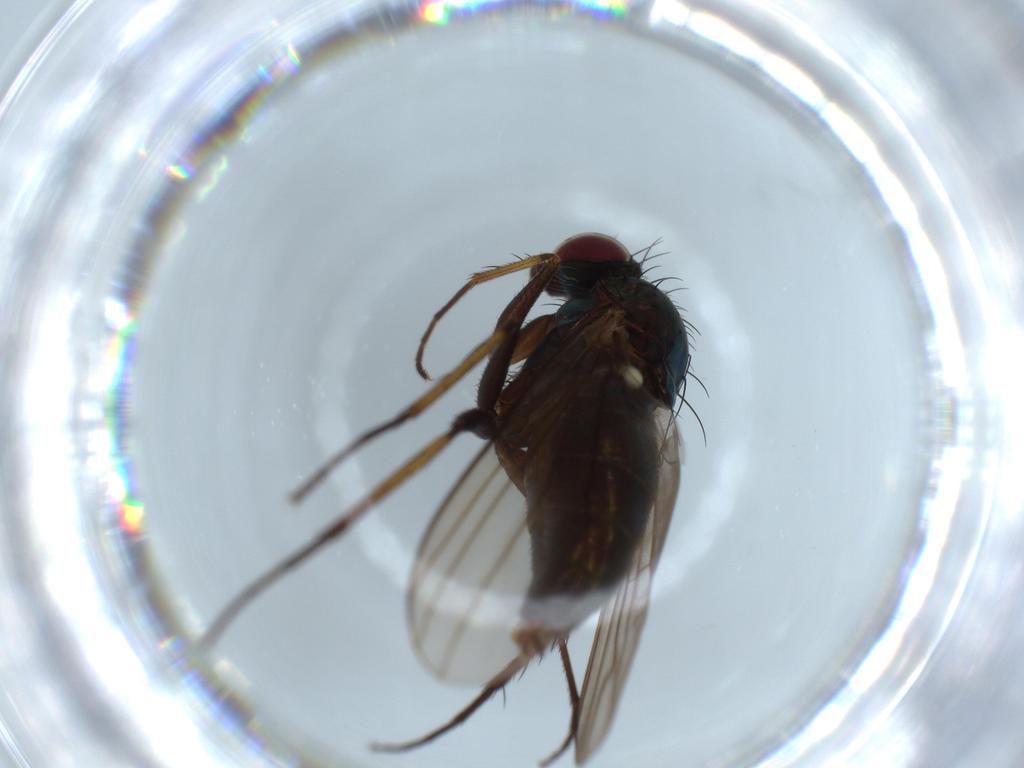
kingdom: Animalia
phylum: Arthropoda
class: Insecta
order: Diptera
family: Dolichopodidae
